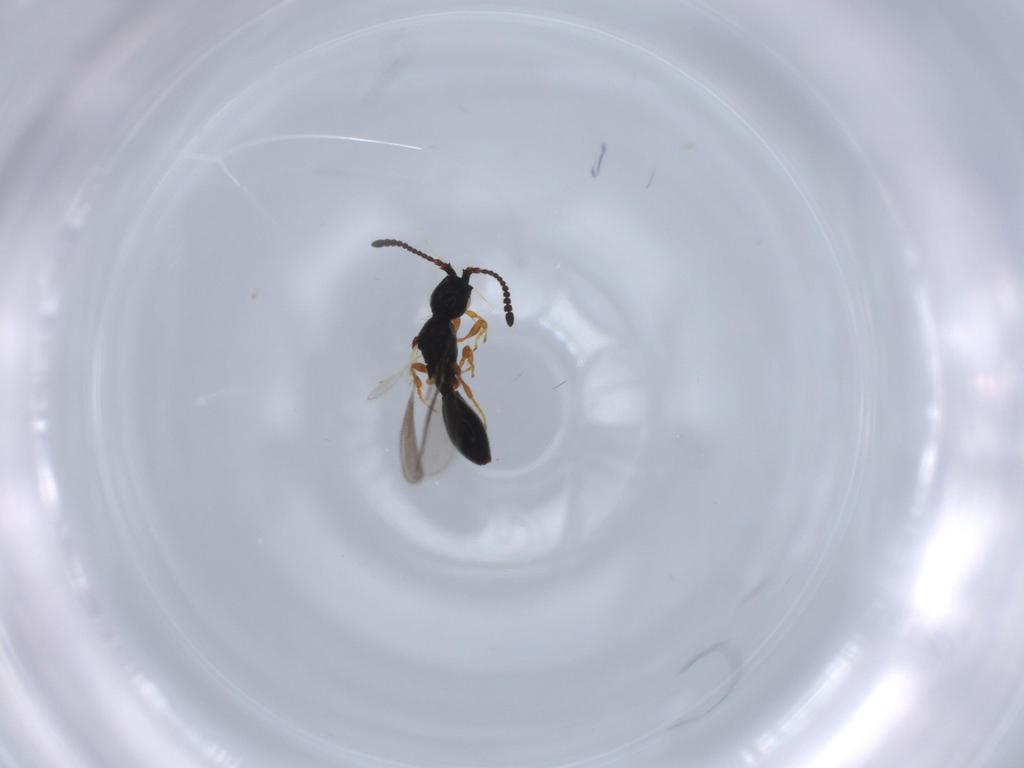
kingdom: Animalia
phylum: Arthropoda
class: Insecta
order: Hymenoptera
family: Diapriidae
